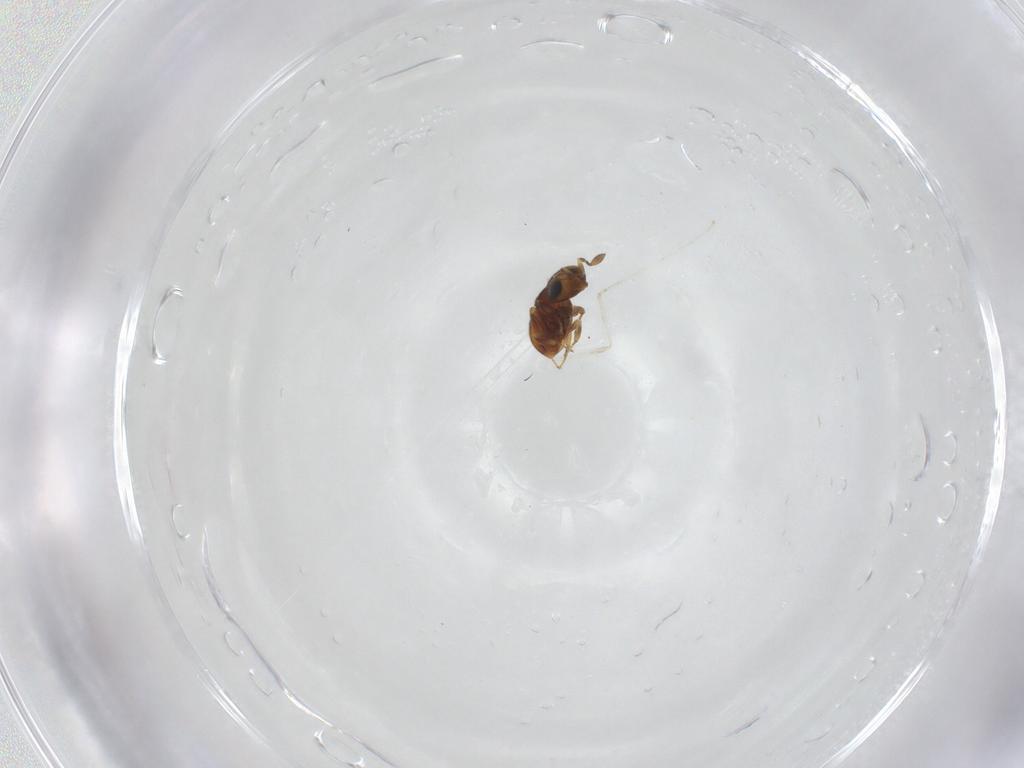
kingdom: Animalia
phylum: Arthropoda
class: Insecta
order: Hymenoptera
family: Scelionidae
